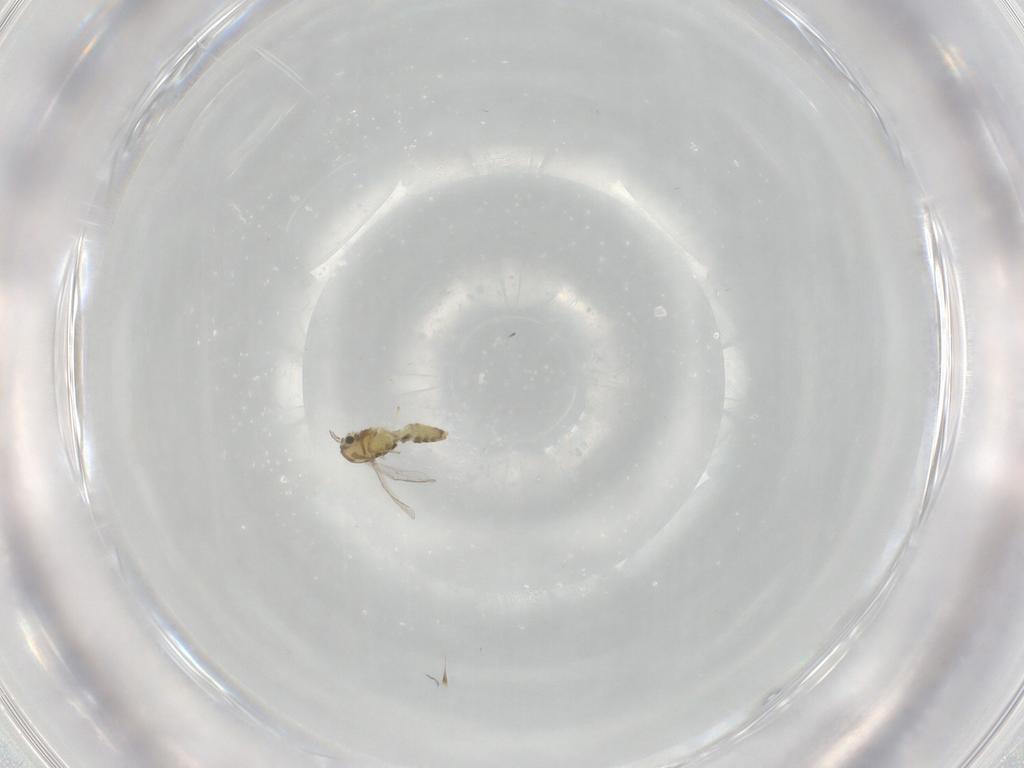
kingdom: Animalia
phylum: Arthropoda
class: Insecta
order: Diptera
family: Chironomidae
